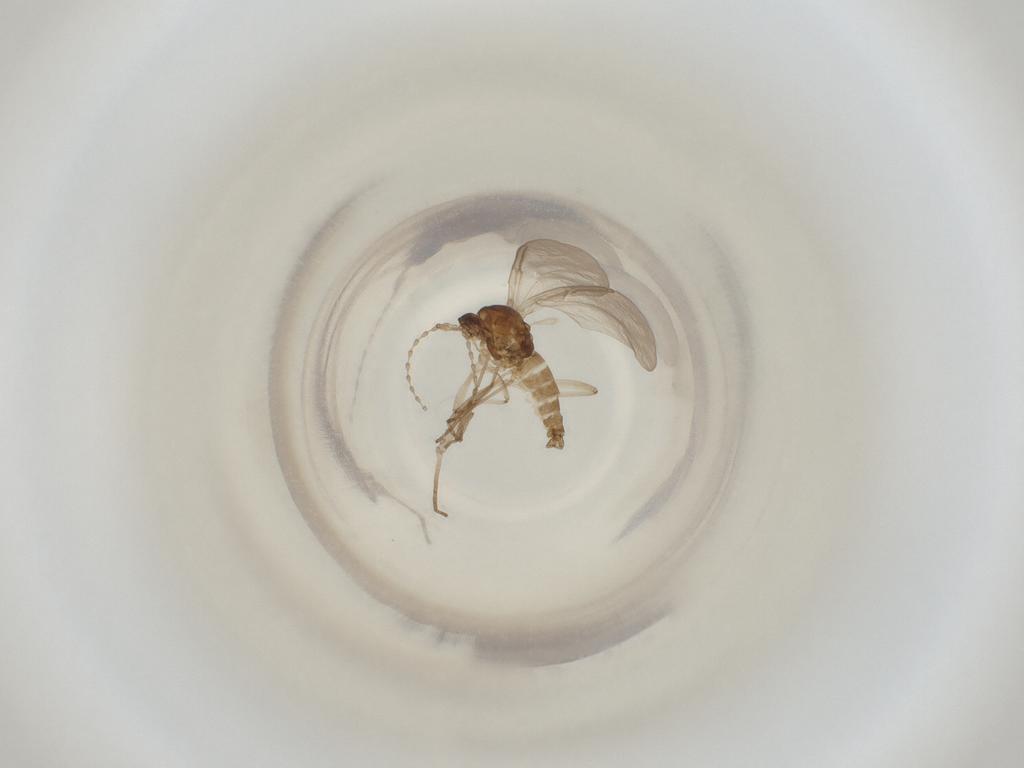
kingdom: Animalia
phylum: Arthropoda
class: Insecta
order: Diptera
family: Cecidomyiidae
